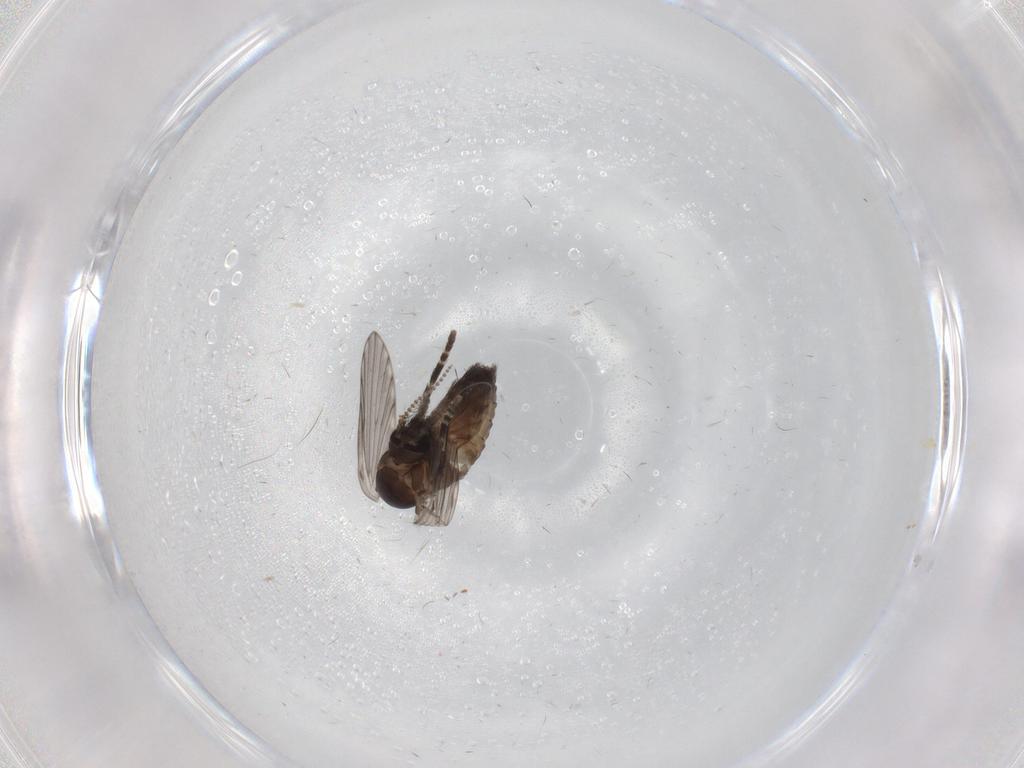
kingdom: Animalia
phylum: Arthropoda
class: Insecta
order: Diptera
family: Psychodidae
